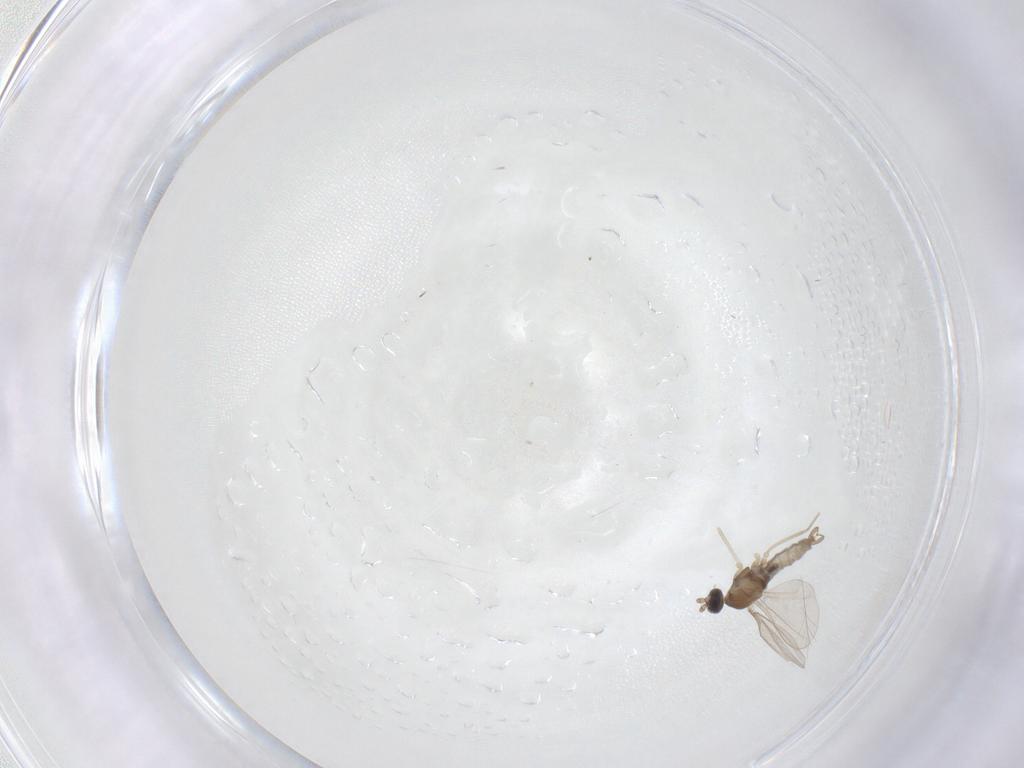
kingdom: Animalia
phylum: Arthropoda
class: Insecta
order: Diptera
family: Cecidomyiidae
